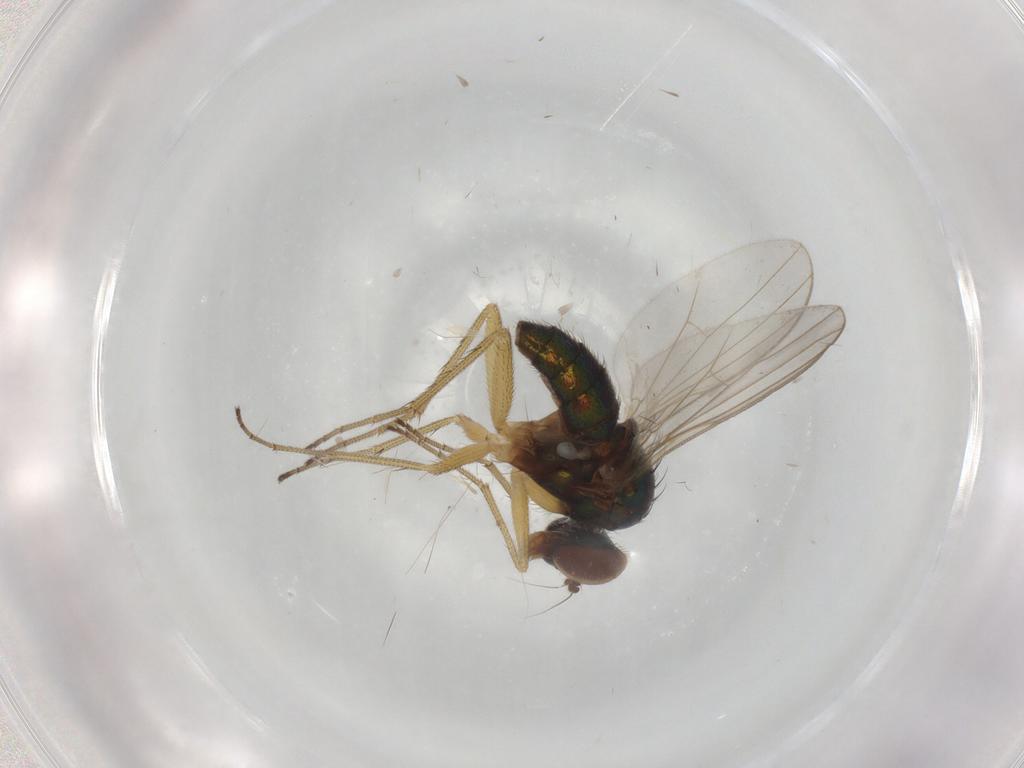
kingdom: Animalia
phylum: Arthropoda
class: Insecta
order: Diptera
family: Dolichopodidae
